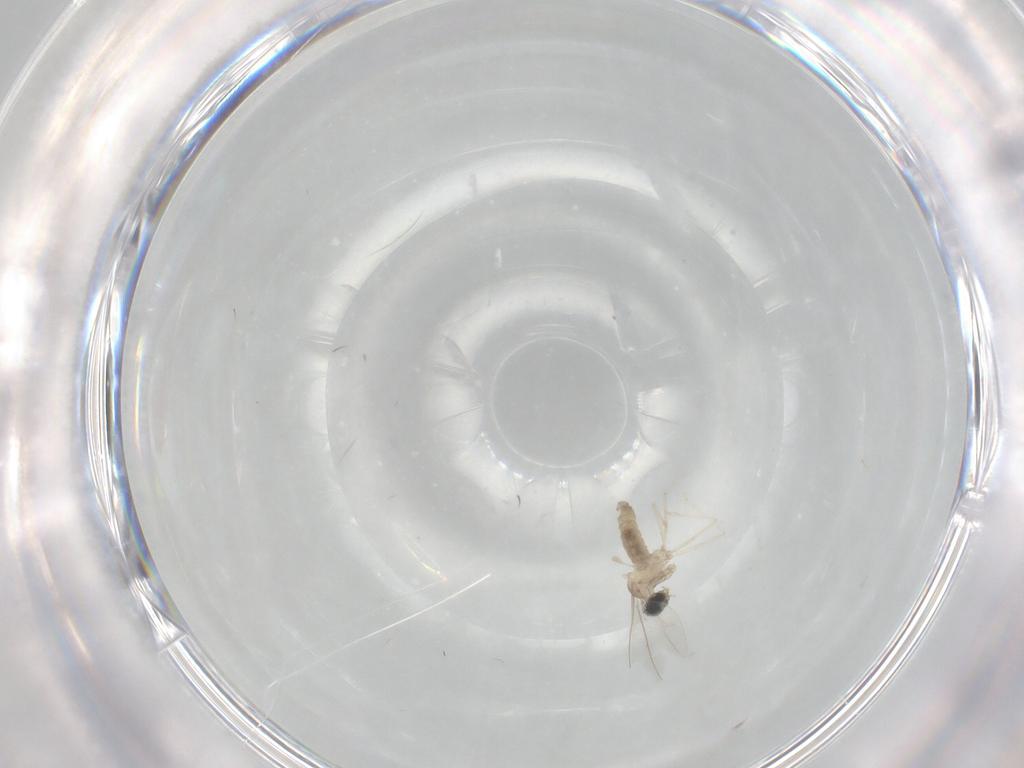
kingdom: Animalia
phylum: Arthropoda
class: Insecta
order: Diptera
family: Cecidomyiidae
